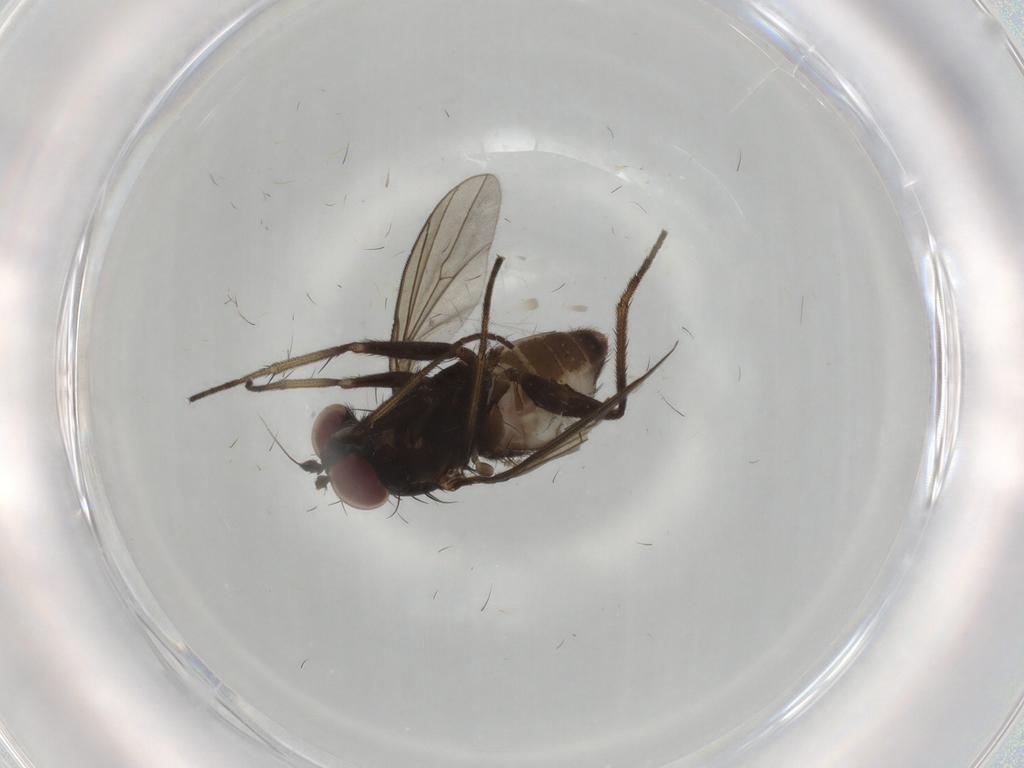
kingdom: Animalia
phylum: Arthropoda
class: Insecta
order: Diptera
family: Dolichopodidae
